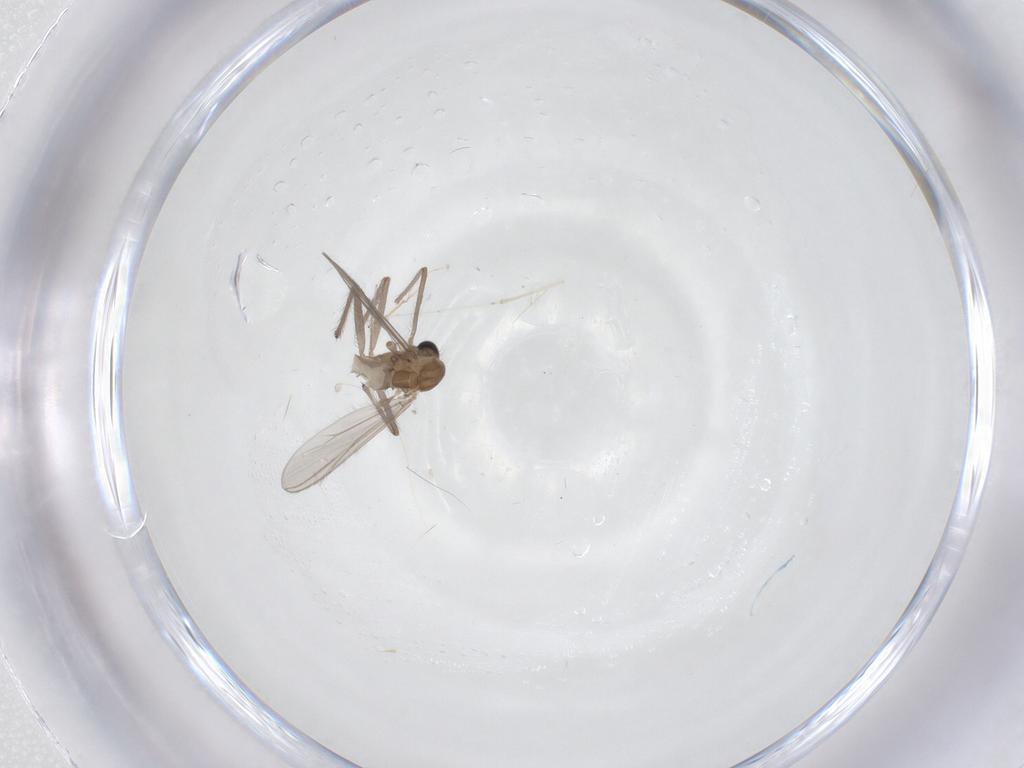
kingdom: Animalia
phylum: Arthropoda
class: Insecta
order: Diptera
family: Chironomidae
